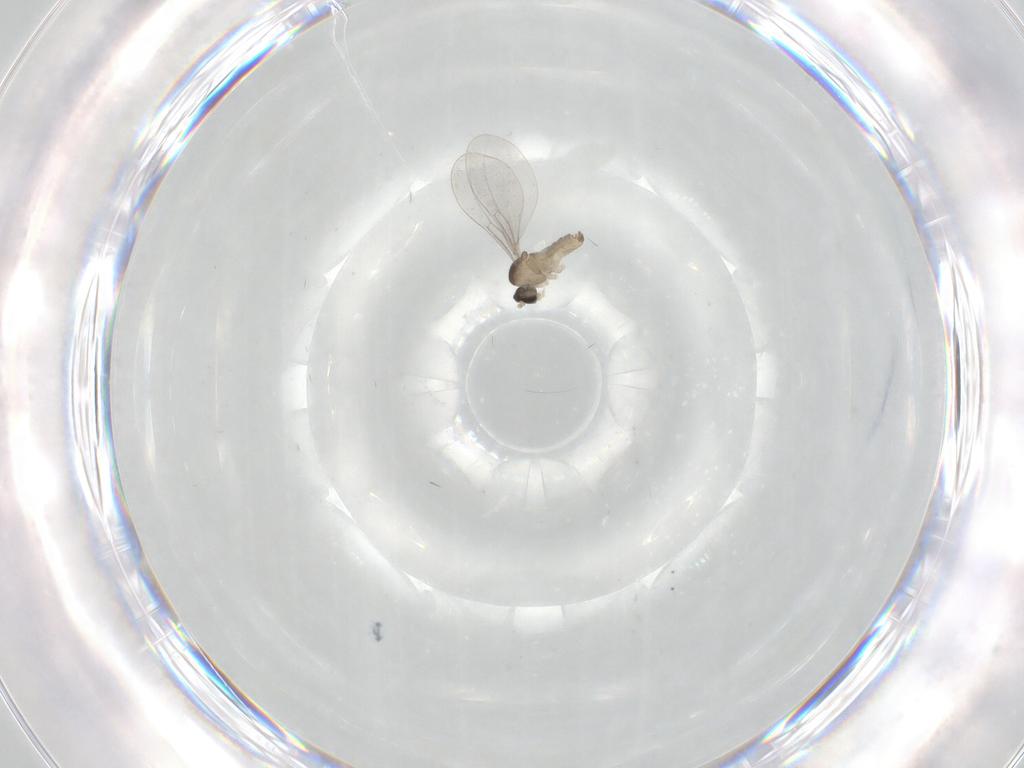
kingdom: Animalia
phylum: Arthropoda
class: Insecta
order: Diptera
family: Cecidomyiidae
